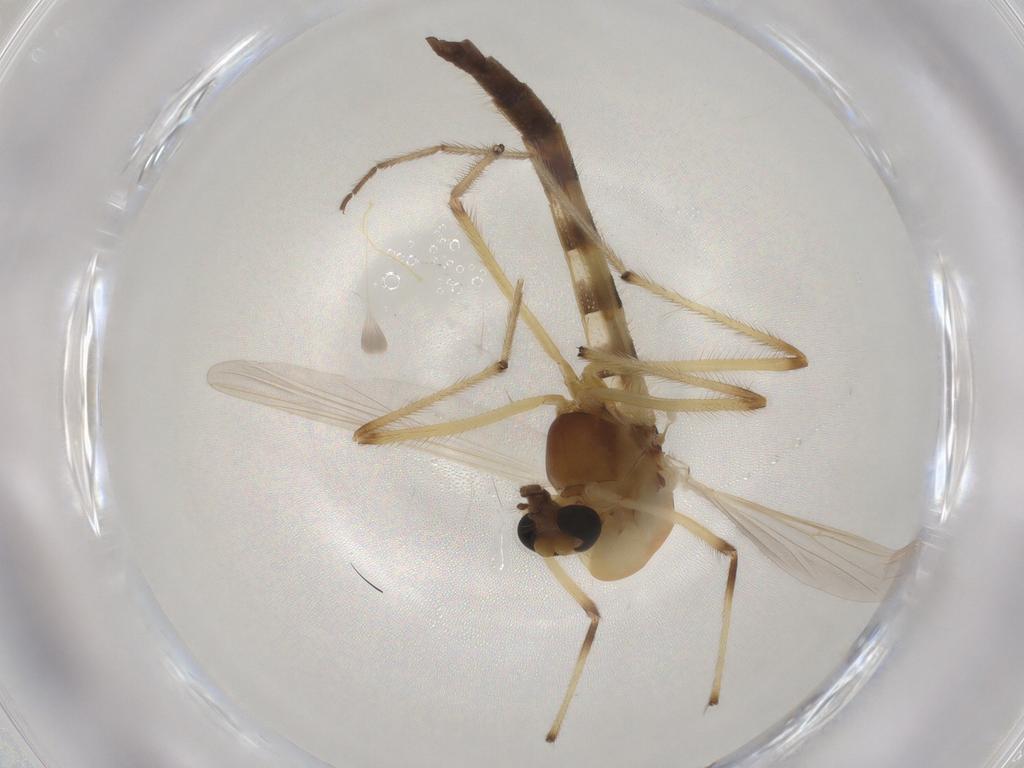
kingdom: Animalia
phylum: Arthropoda
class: Insecta
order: Diptera
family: Chironomidae
